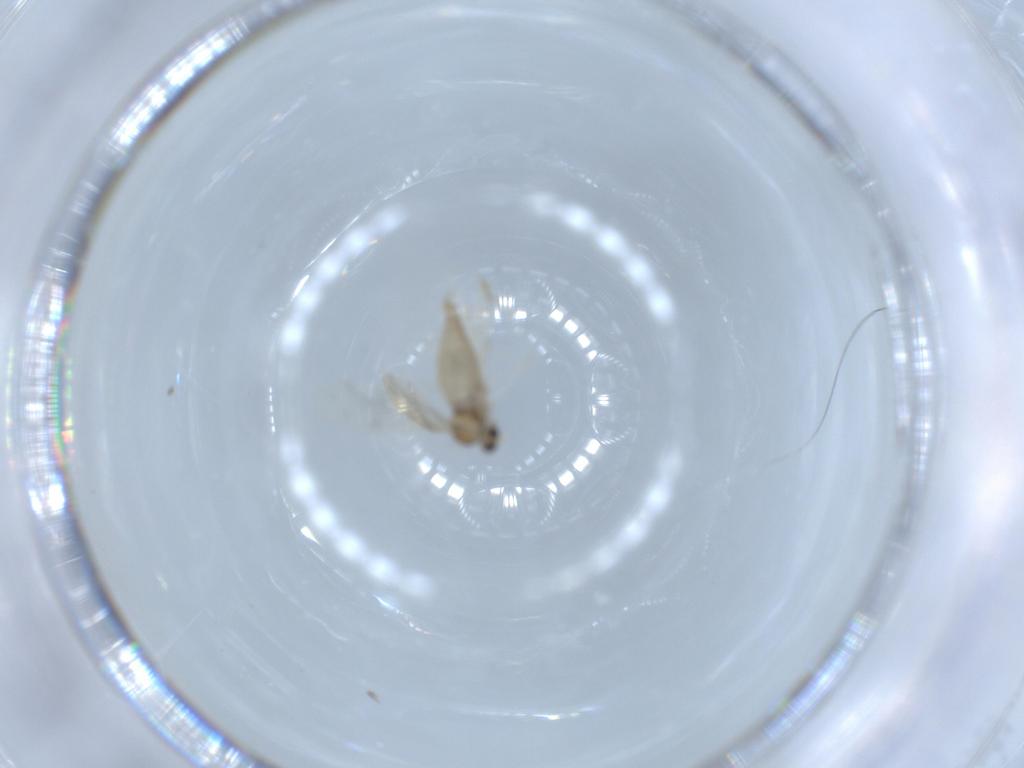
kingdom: Animalia
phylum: Arthropoda
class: Insecta
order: Diptera
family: Cecidomyiidae
